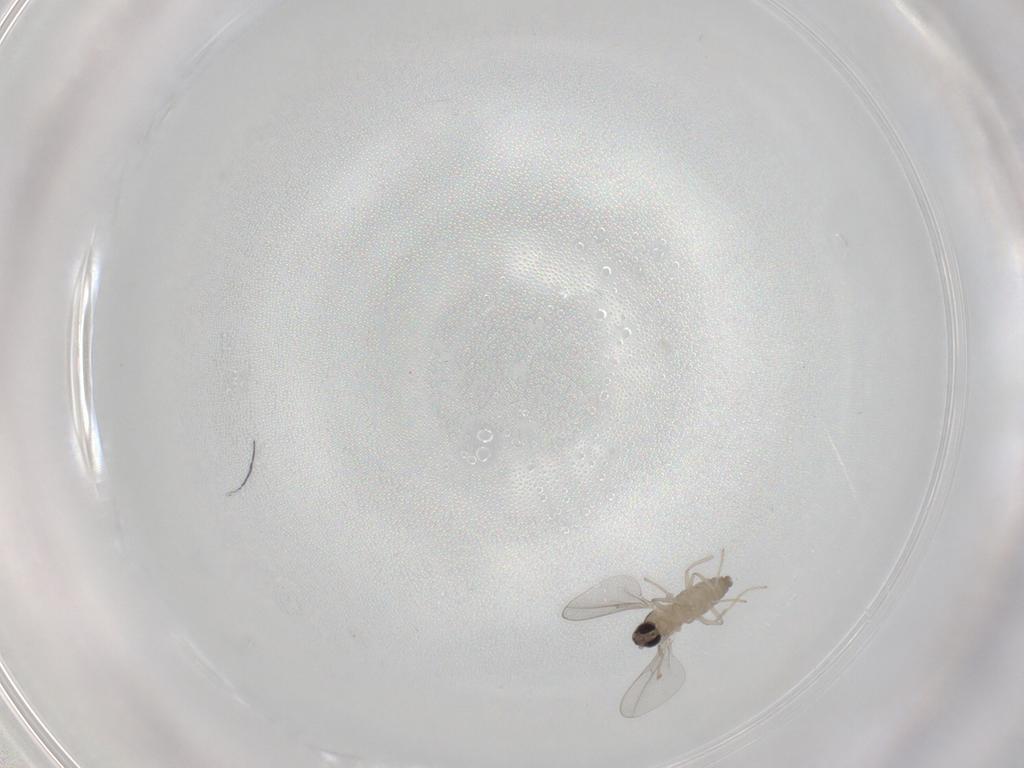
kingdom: Animalia
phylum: Arthropoda
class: Insecta
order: Diptera
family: Cecidomyiidae
